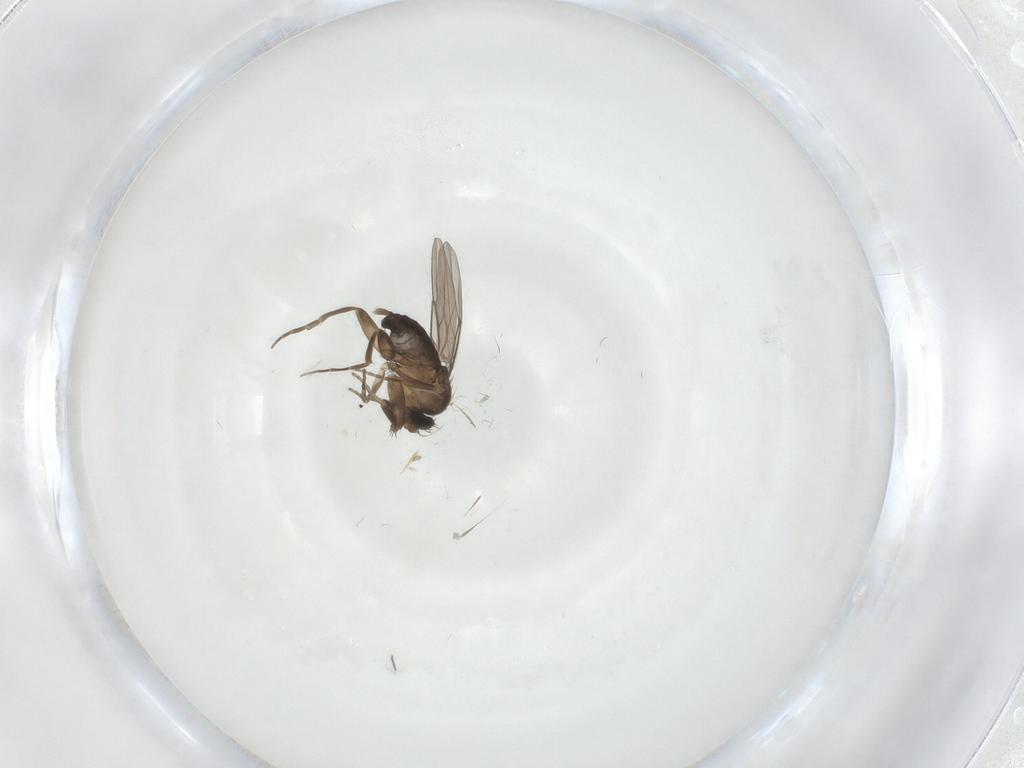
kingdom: Animalia
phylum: Arthropoda
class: Insecta
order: Diptera
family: Phoridae
